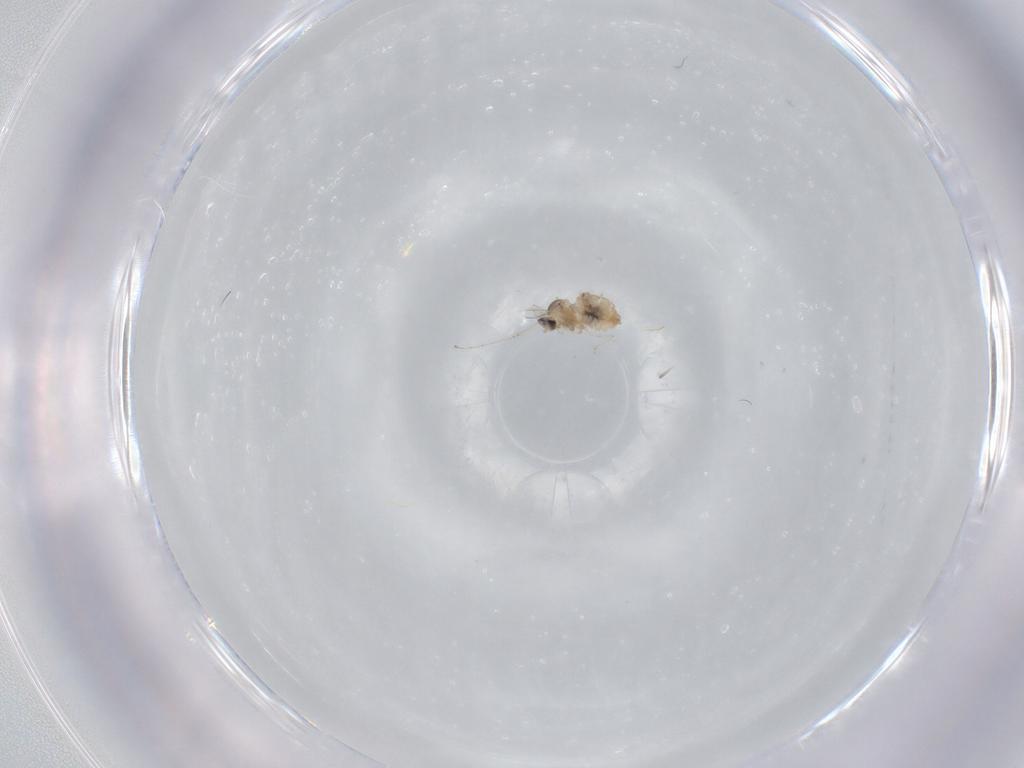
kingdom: Animalia
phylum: Arthropoda
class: Insecta
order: Diptera
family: Cecidomyiidae
